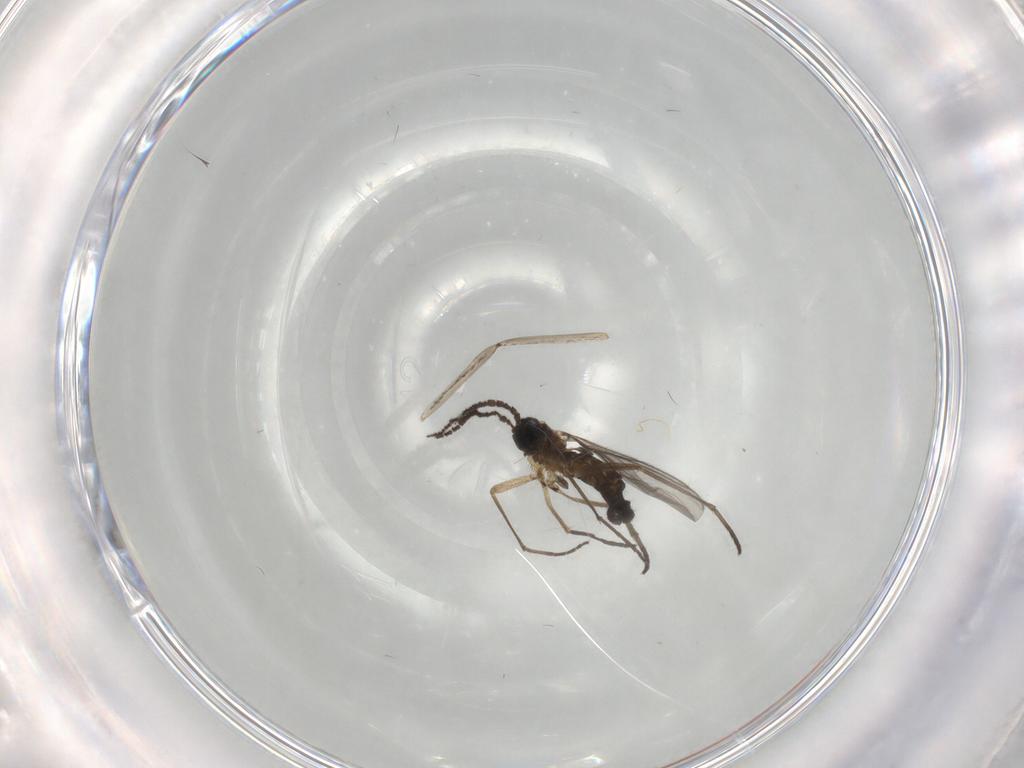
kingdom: Animalia
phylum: Arthropoda
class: Insecta
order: Diptera
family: Sciaridae
